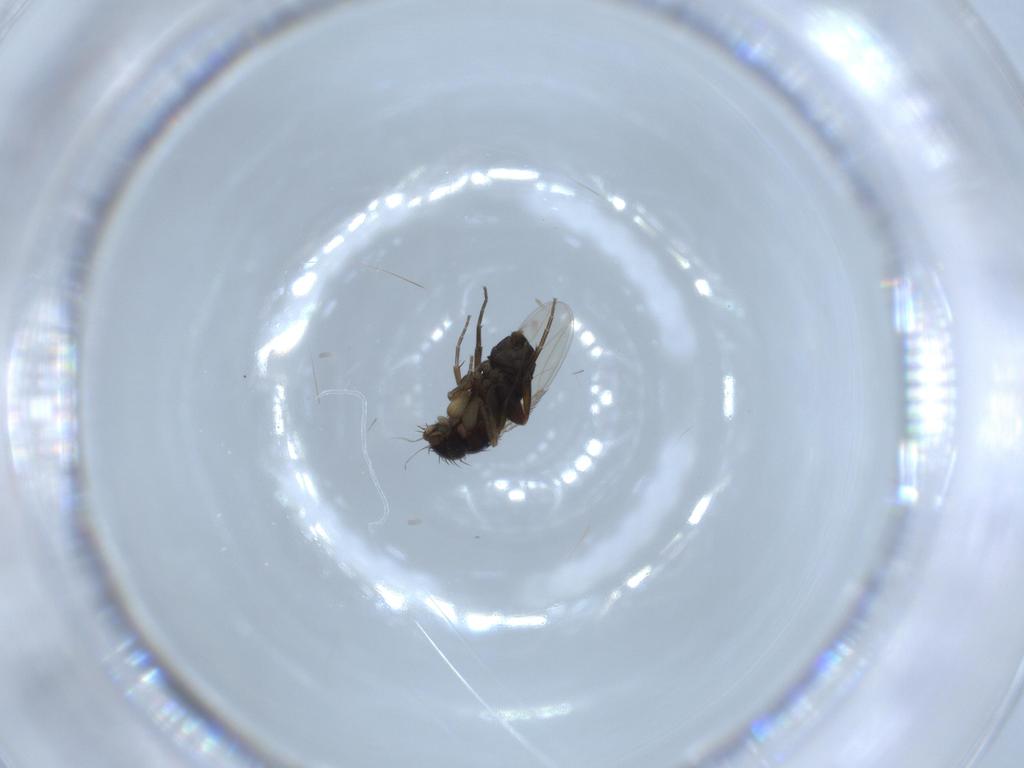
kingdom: Animalia
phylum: Arthropoda
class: Insecta
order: Diptera
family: Phoridae
